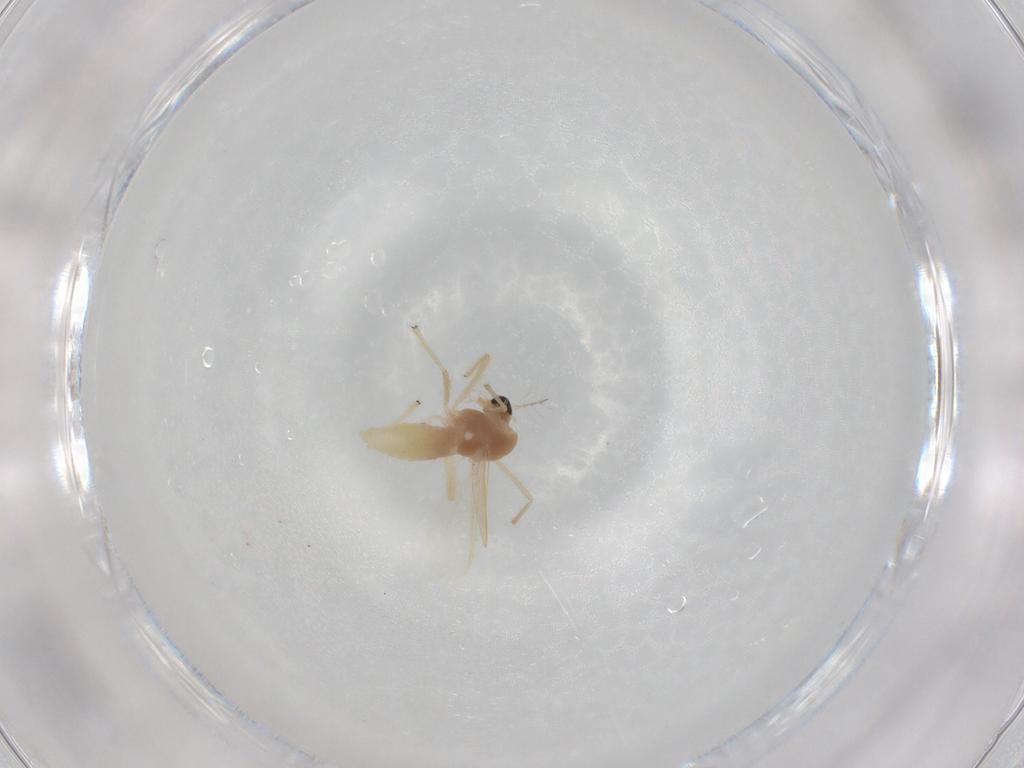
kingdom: Animalia
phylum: Arthropoda
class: Insecta
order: Diptera
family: Chironomidae
